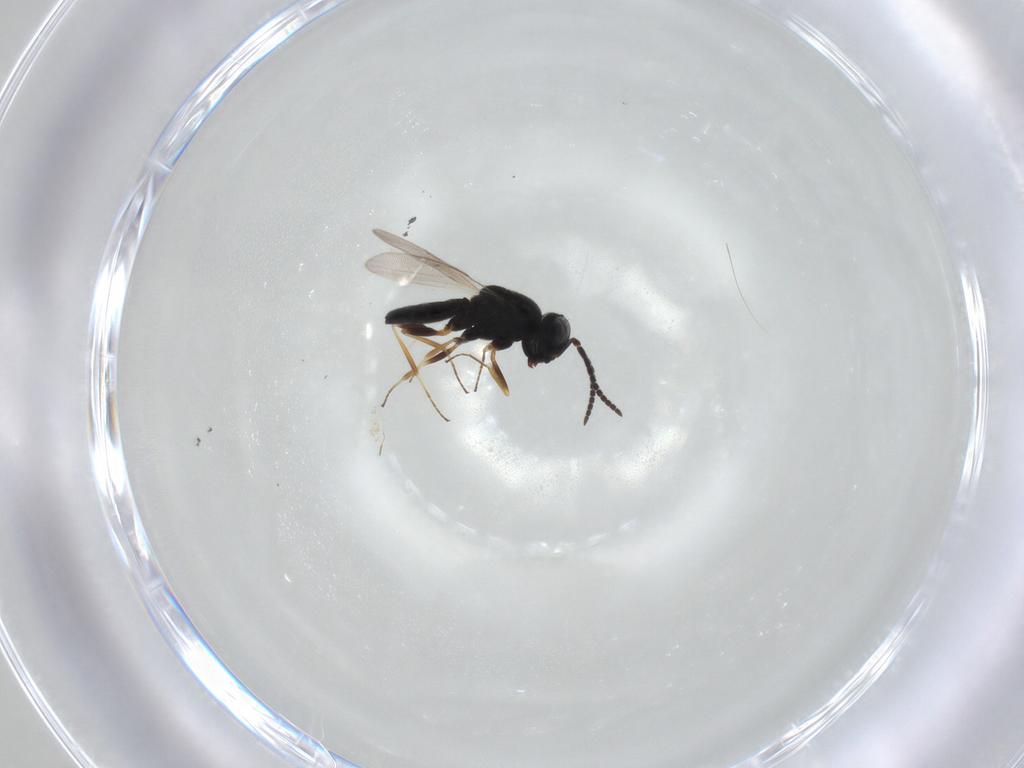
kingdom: Animalia
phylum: Arthropoda
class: Insecta
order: Hymenoptera
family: Scelionidae
